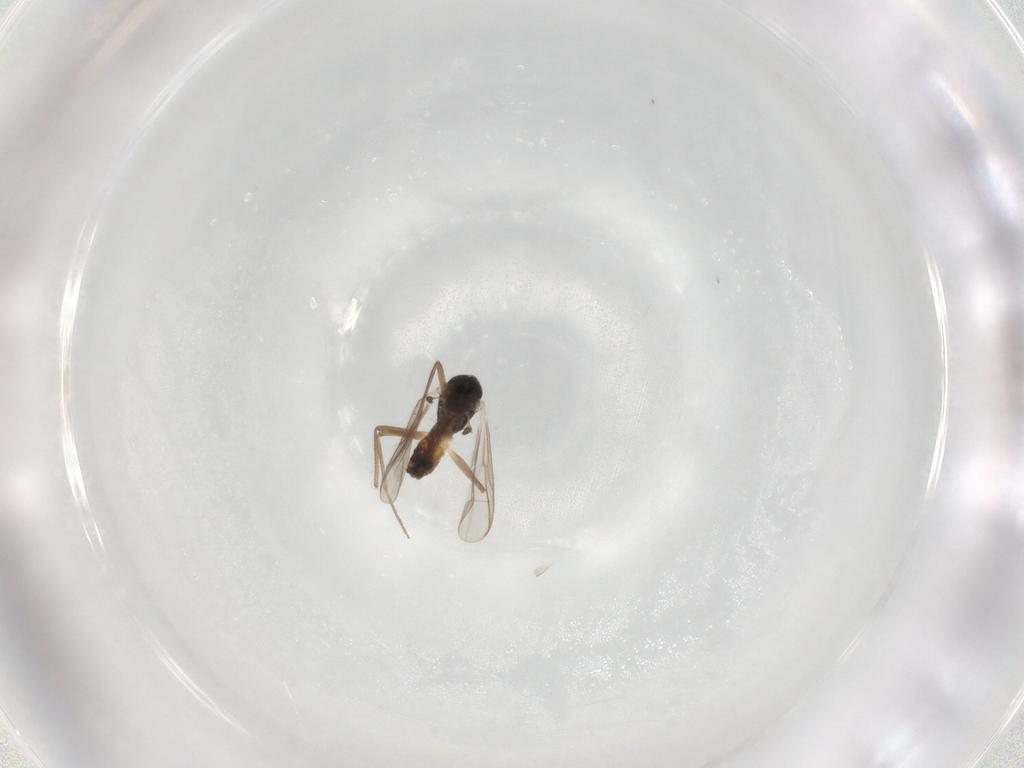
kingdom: Animalia
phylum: Arthropoda
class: Insecta
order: Diptera
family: Chironomidae
